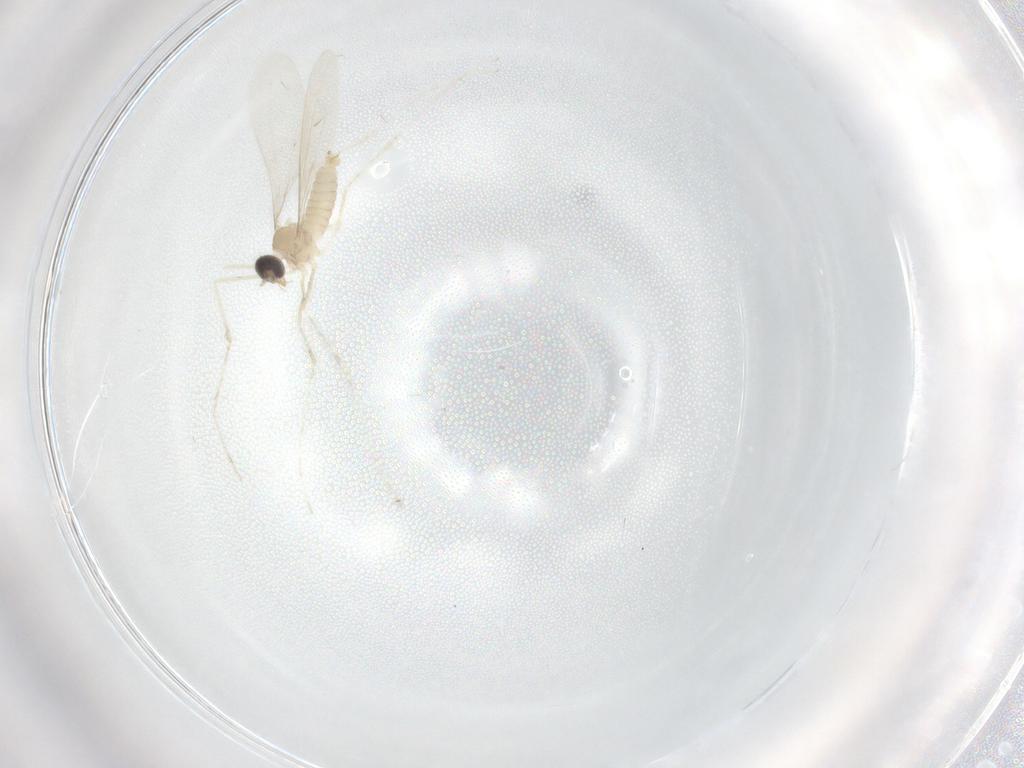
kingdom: Animalia
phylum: Arthropoda
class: Insecta
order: Diptera
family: Cecidomyiidae
